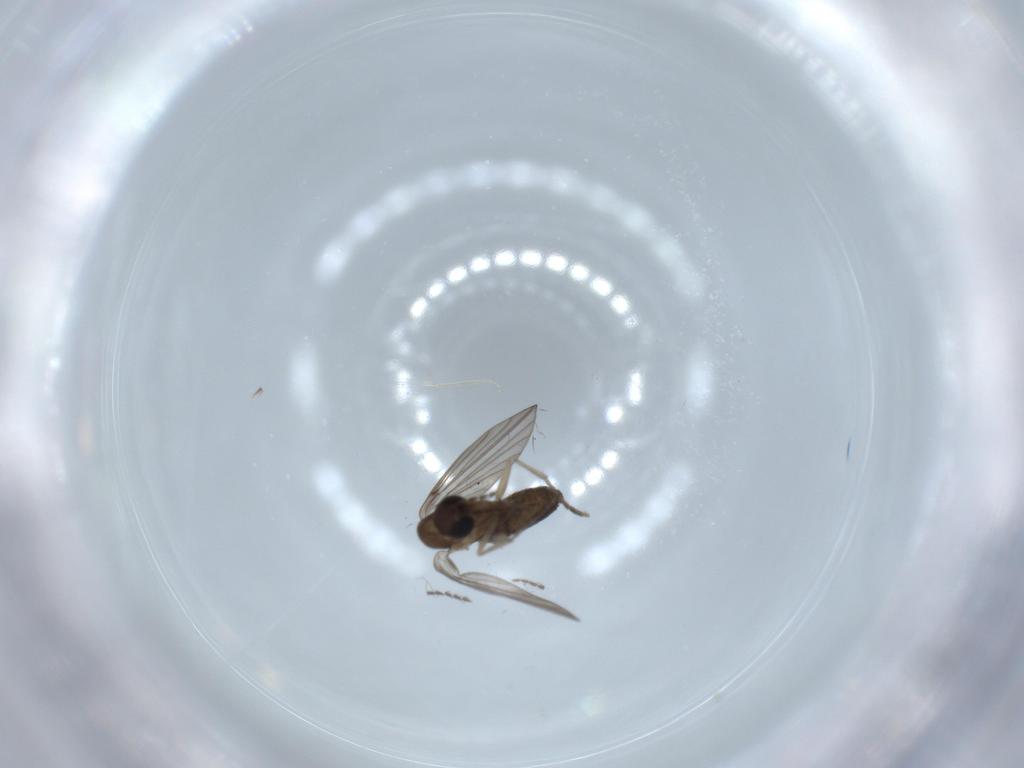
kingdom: Animalia
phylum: Arthropoda
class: Insecta
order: Diptera
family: Psychodidae
